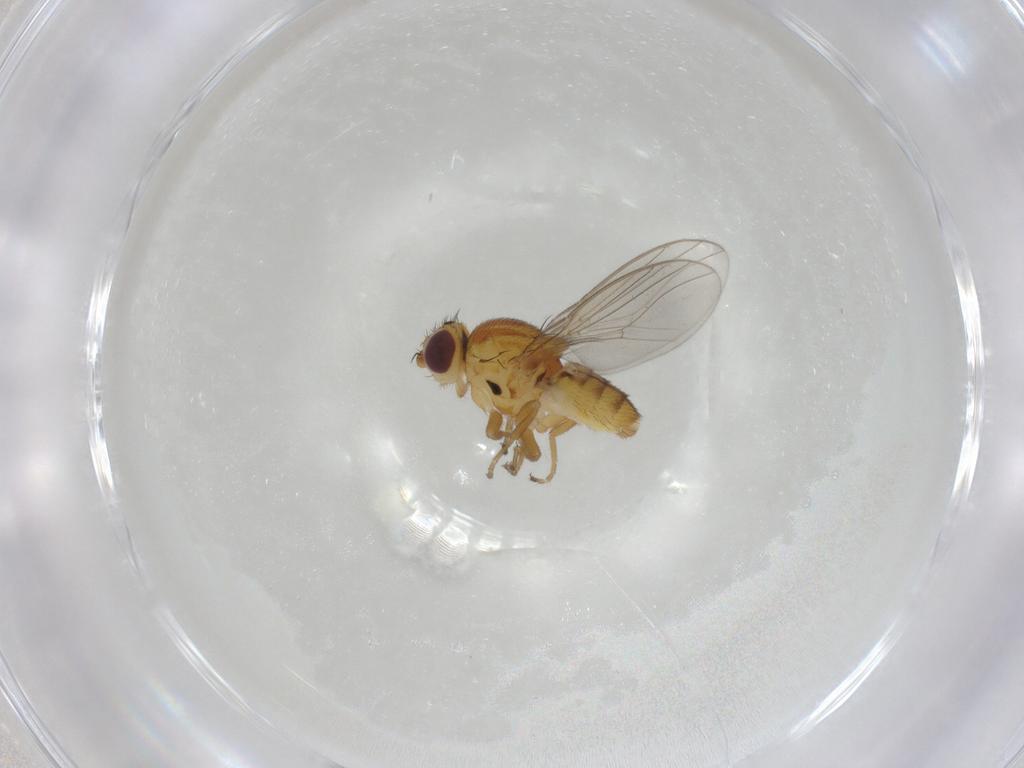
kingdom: Animalia
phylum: Arthropoda
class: Insecta
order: Diptera
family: Chloropidae
